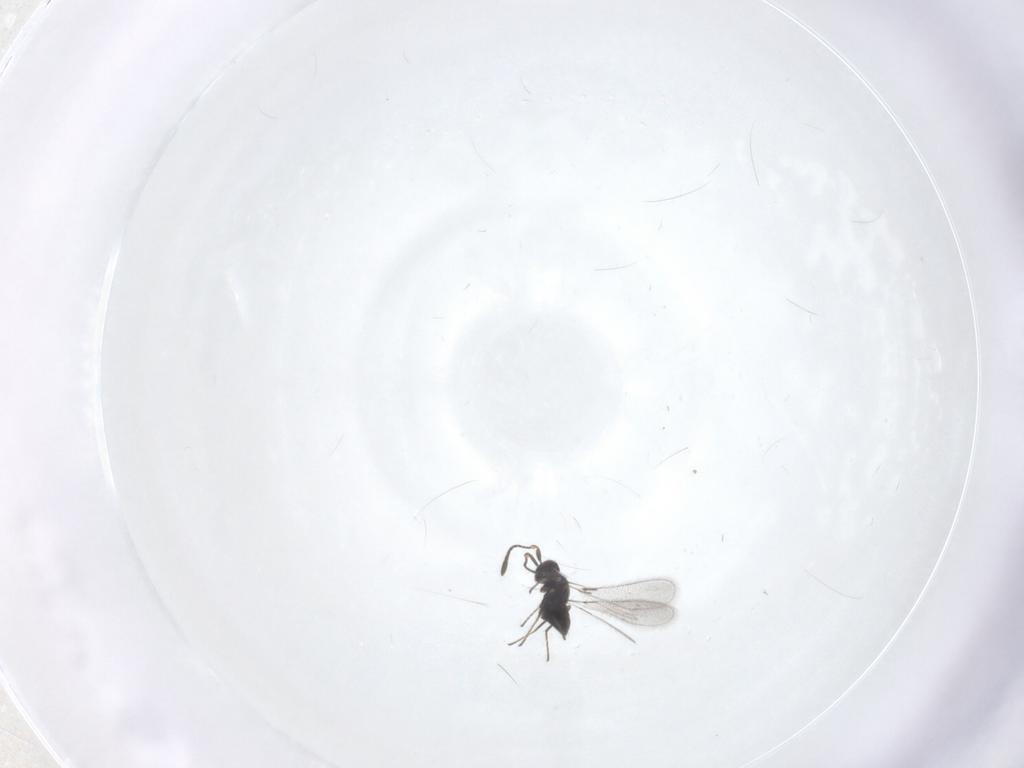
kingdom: Animalia
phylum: Arthropoda
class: Insecta
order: Hymenoptera
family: Mymaridae
